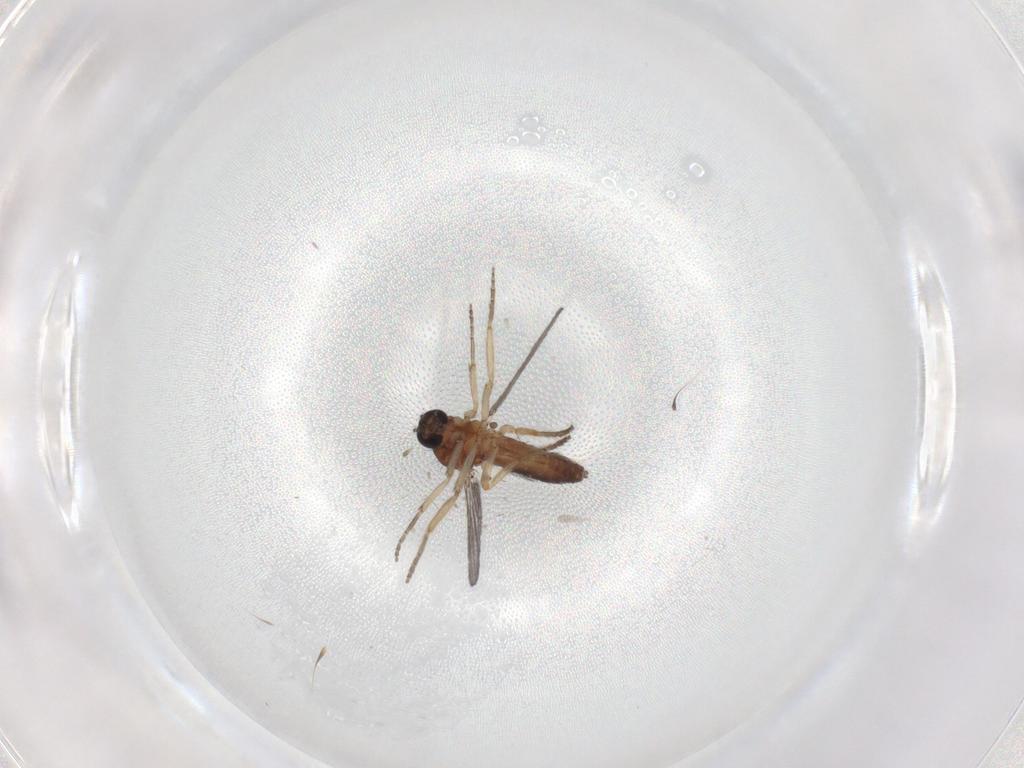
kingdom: Animalia
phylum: Arthropoda
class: Insecta
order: Diptera
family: Ceratopogonidae
